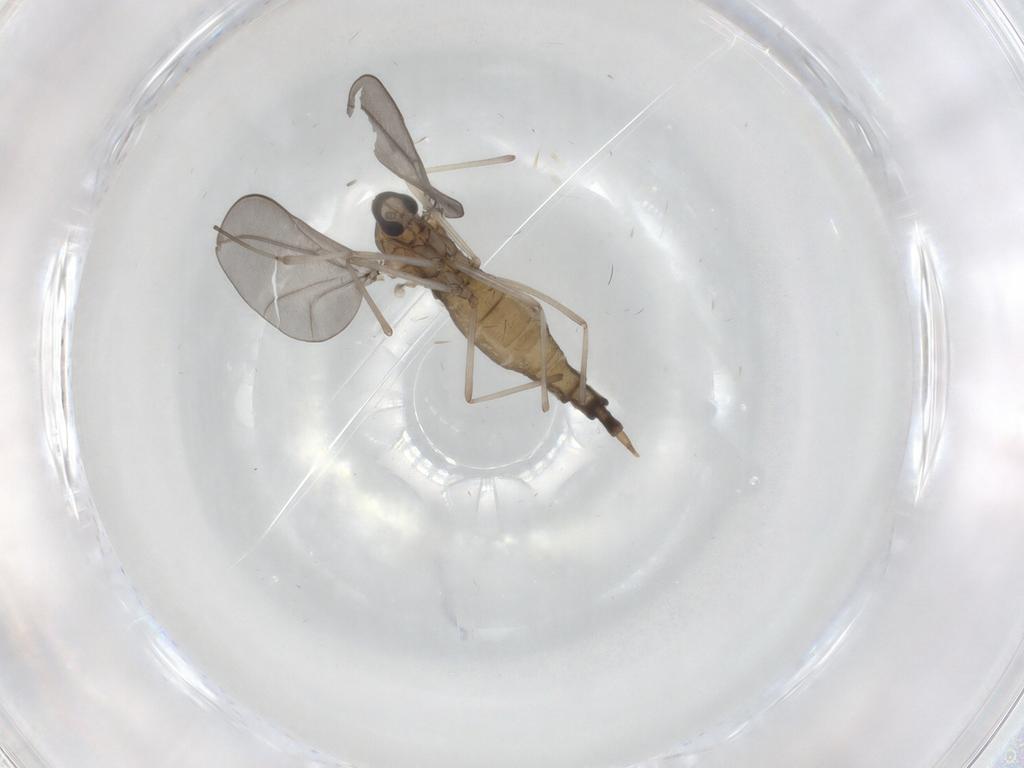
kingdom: Animalia
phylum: Arthropoda
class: Insecta
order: Diptera
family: Cecidomyiidae
